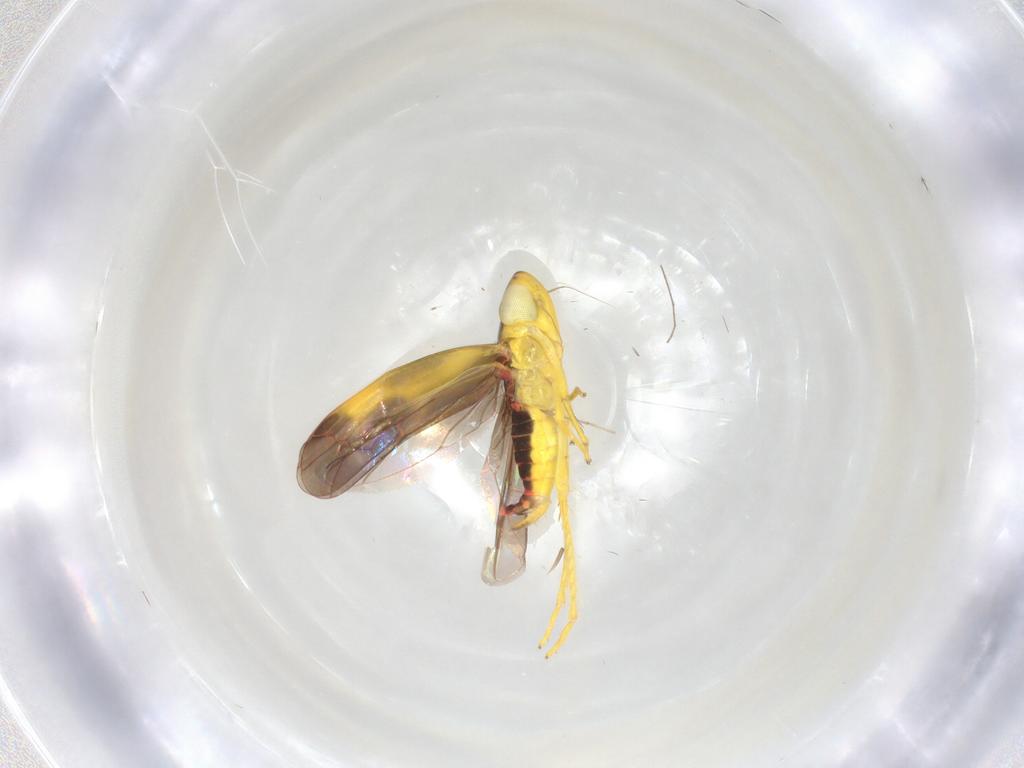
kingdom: Animalia
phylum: Arthropoda
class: Insecta
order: Hemiptera
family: Cicadellidae
